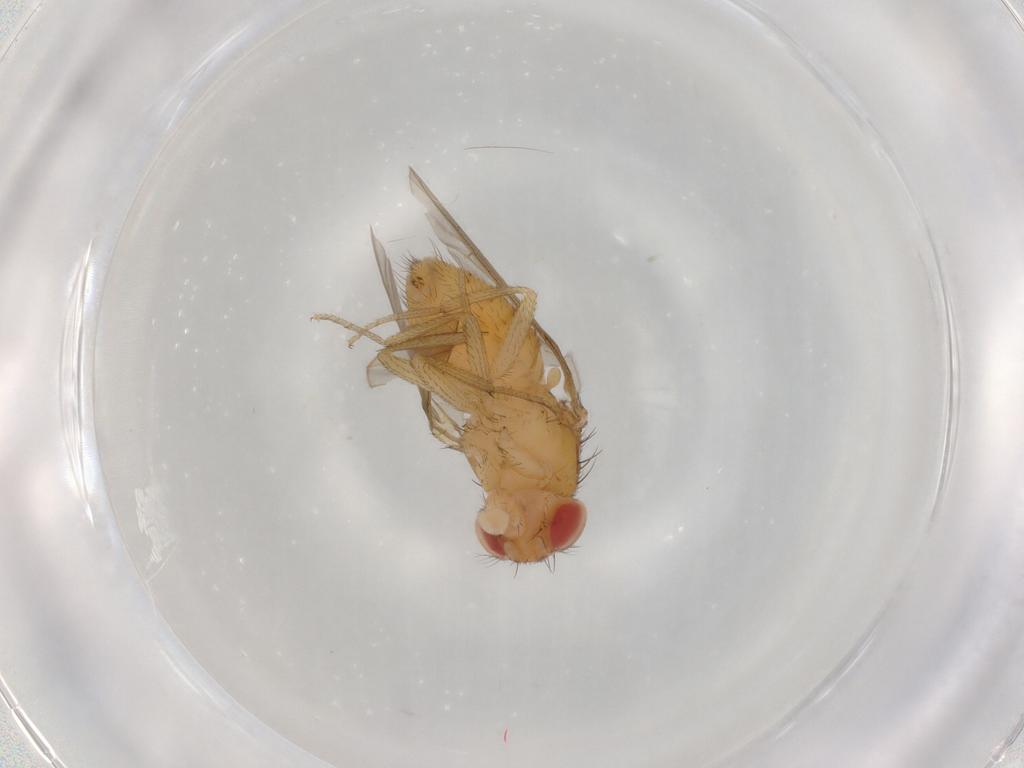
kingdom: Animalia
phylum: Arthropoda
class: Insecta
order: Diptera
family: Drosophilidae
